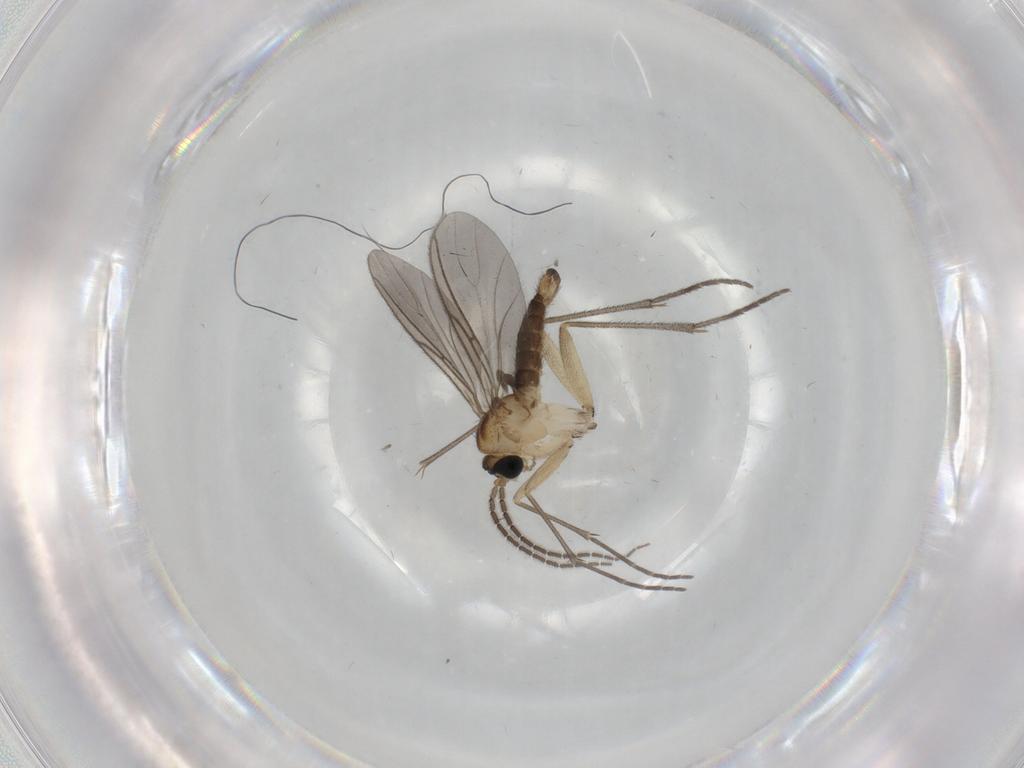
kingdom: Animalia
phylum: Arthropoda
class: Insecta
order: Diptera
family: Sciaridae
